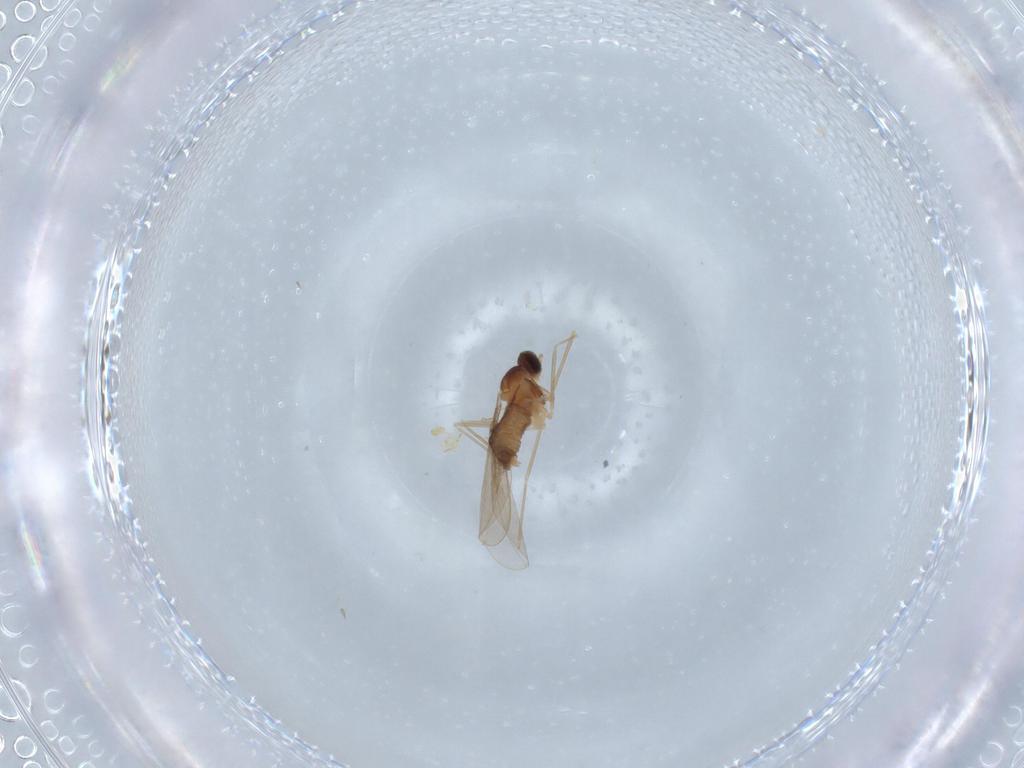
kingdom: Animalia
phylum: Arthropoda
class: Insecta
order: Diptera
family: Cecidomyiidae
